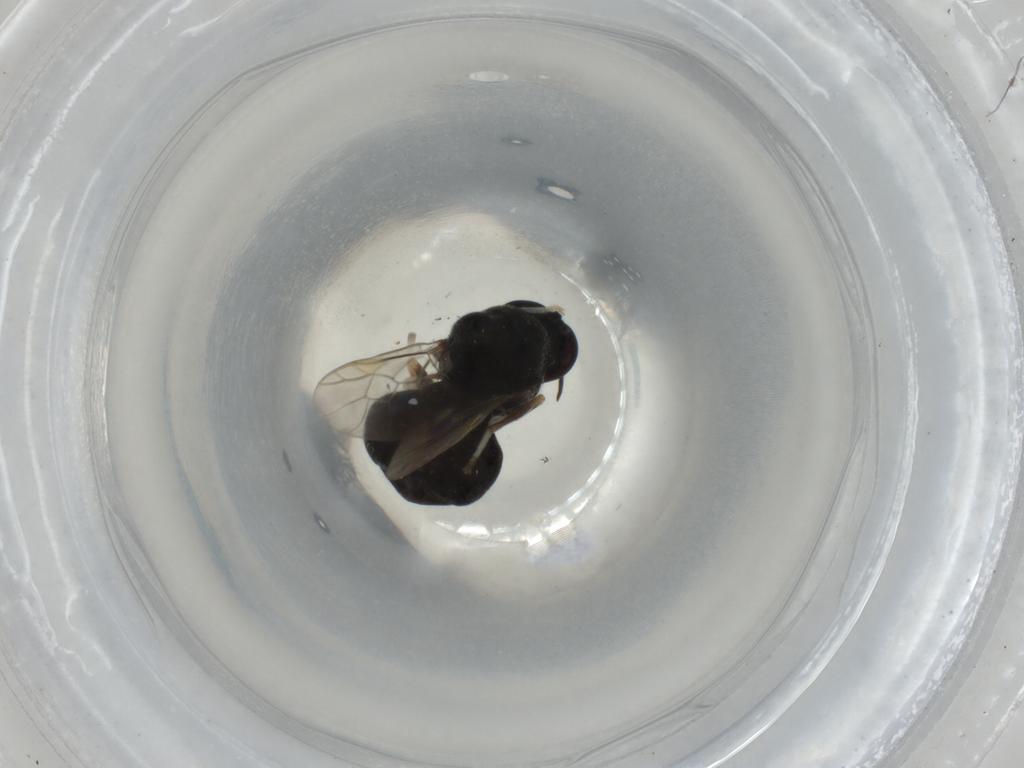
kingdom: Animalia
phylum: Arthropoda
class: Insecta
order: Diptera
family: Stratiomyidae
